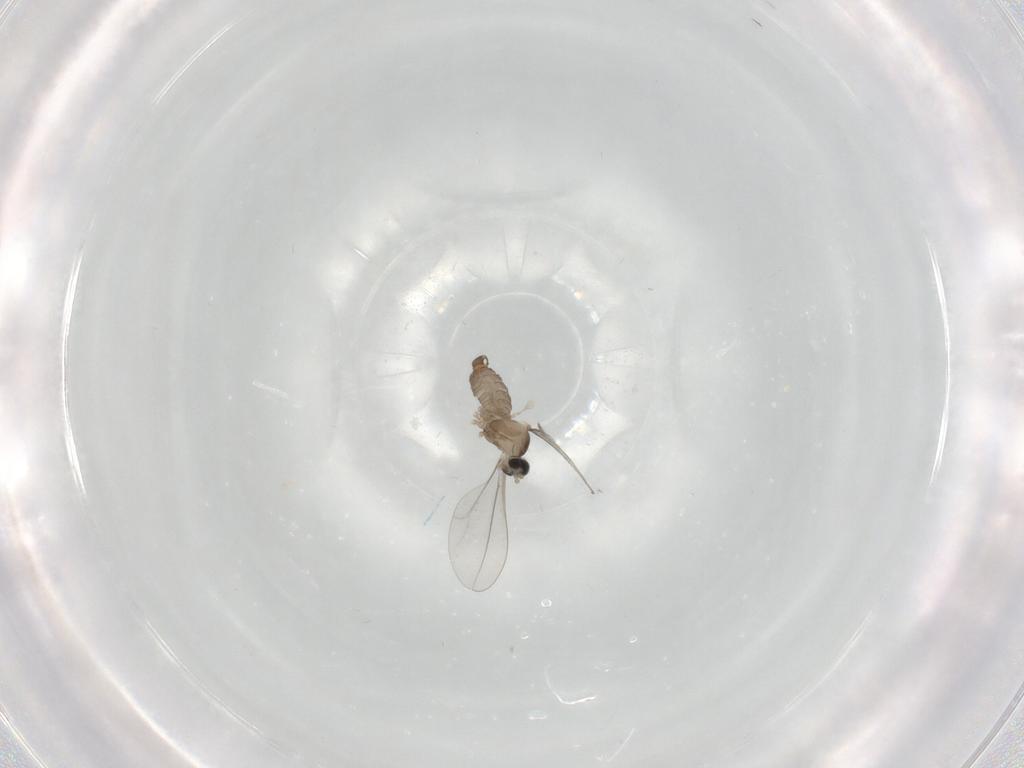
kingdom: Animalia
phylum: Arthropoda
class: Insecta
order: Diptera
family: Cecidomyiidae
